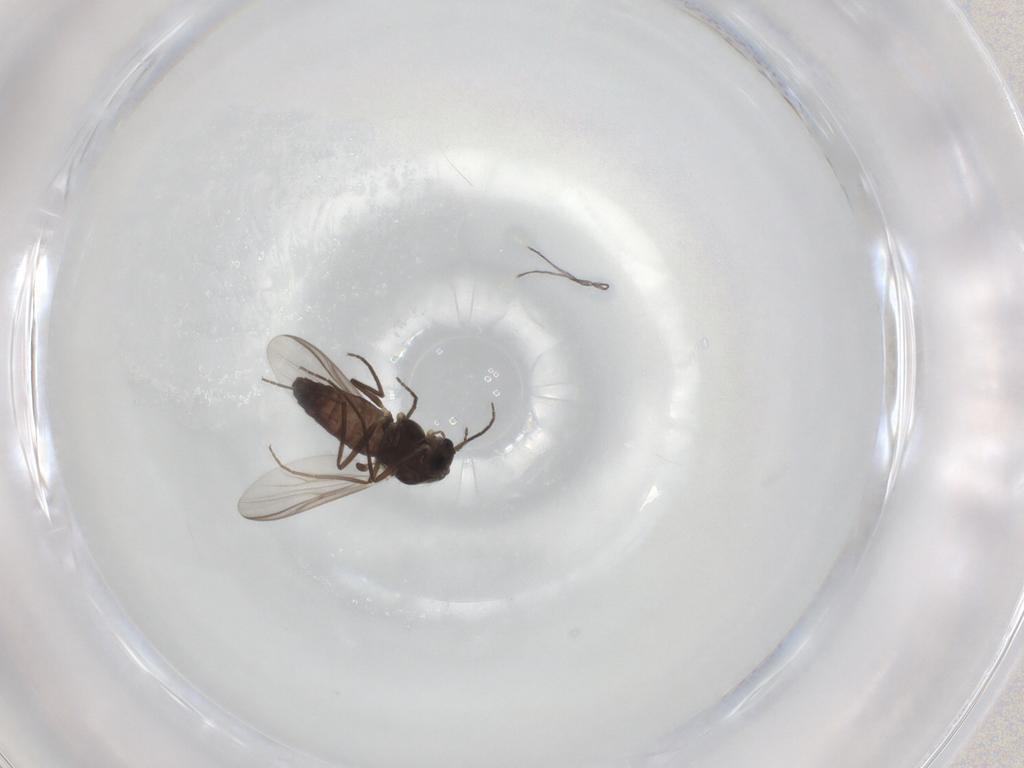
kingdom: Animalia
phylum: Arthropoda
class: Insecta
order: Diptera
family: Chironomidae
